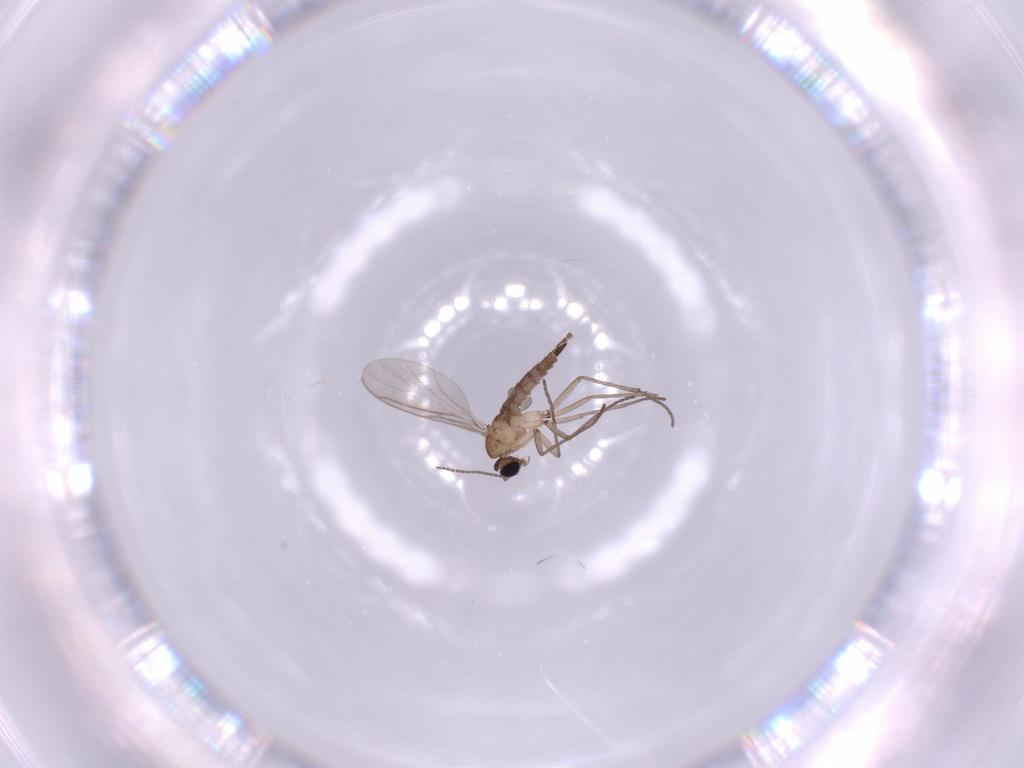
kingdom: Animalia
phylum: Arthropoda
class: Insecta
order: Diptera
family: Sciaridae
